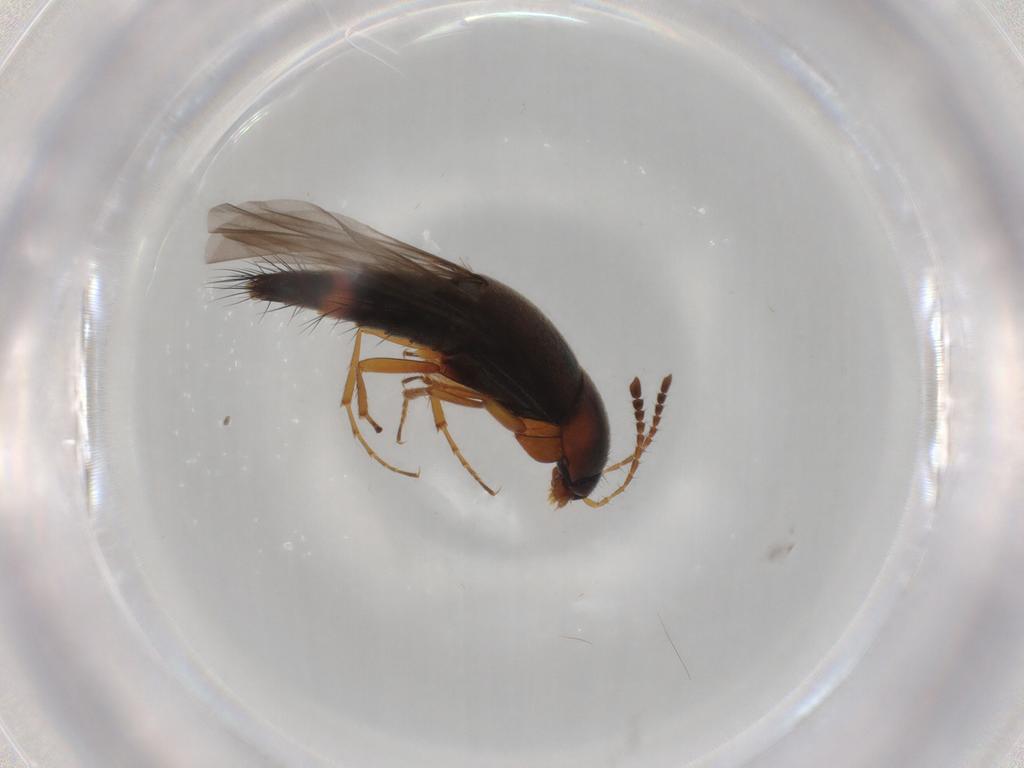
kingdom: Animalia
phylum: Arthropoda
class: Insecta
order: Coleoptera
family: Staphylinidae
